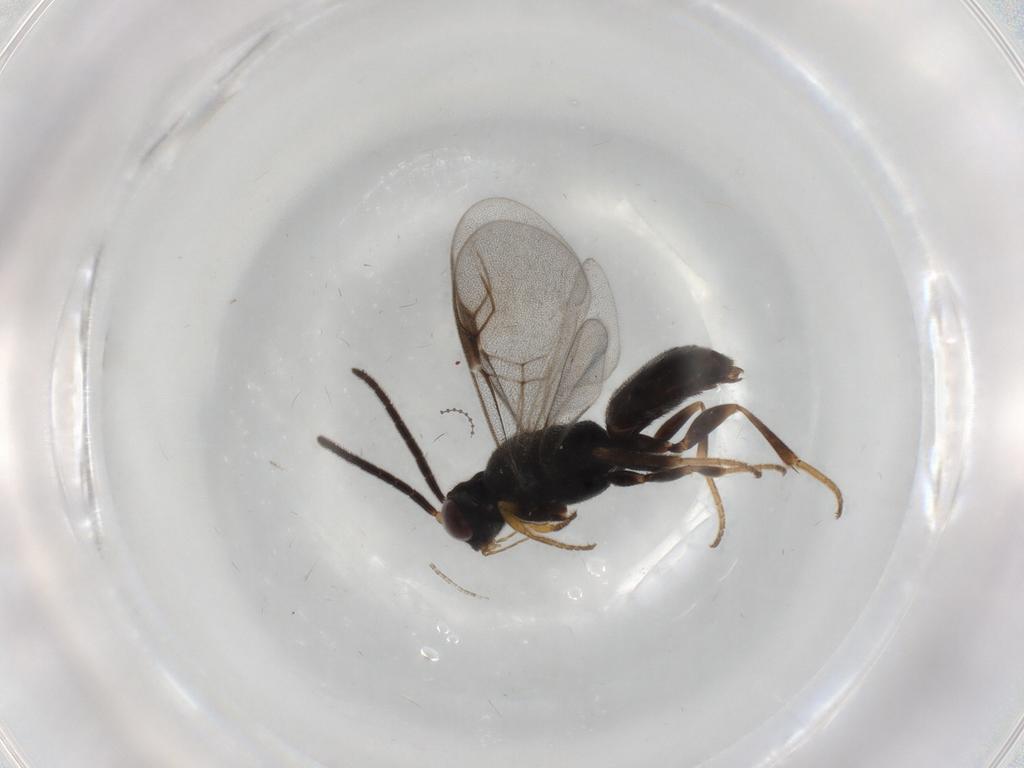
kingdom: Animalia
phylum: Arthropoda
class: Insecta
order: Hymenoptera
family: Dryinidae
